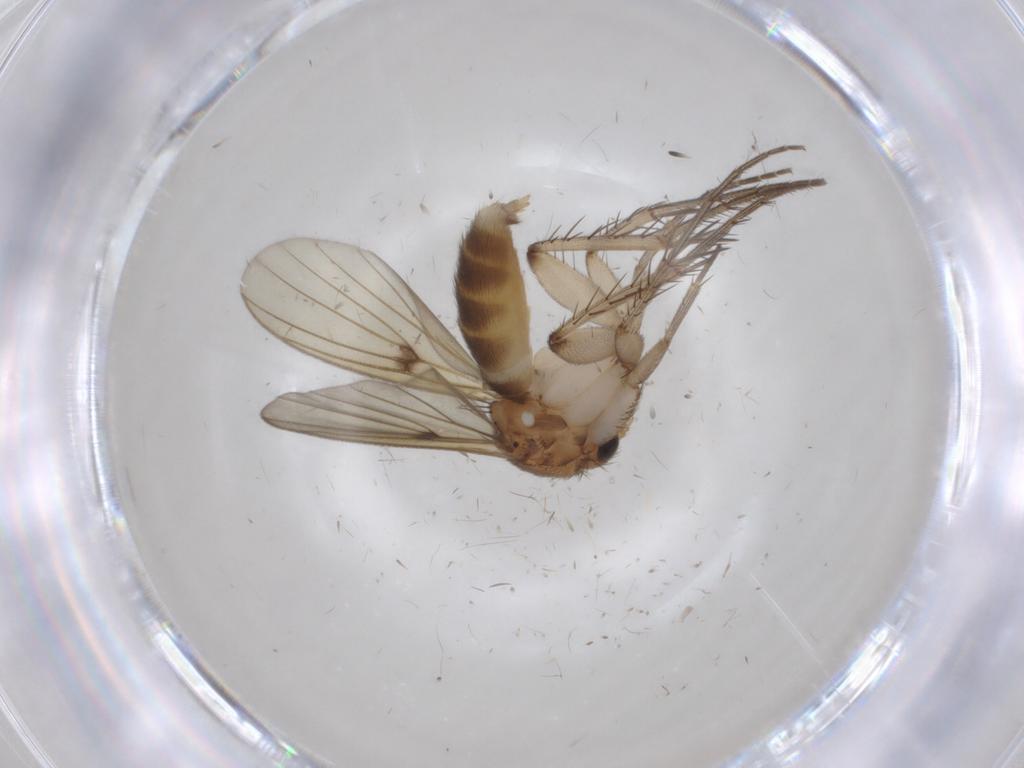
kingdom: Animalia
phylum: Arthropoda
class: Insecta
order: Diptera
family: Mycetophilidae
